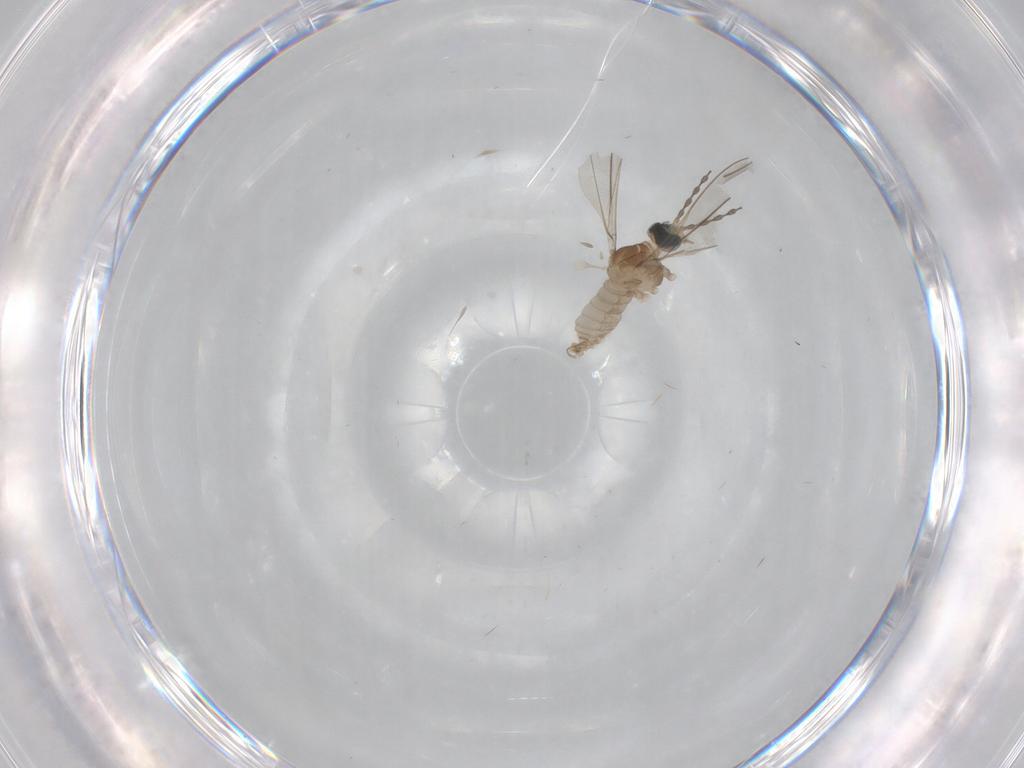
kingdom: Animalia
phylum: Arthropoda
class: Insecta
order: Diptera
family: Cecidomyiidae
